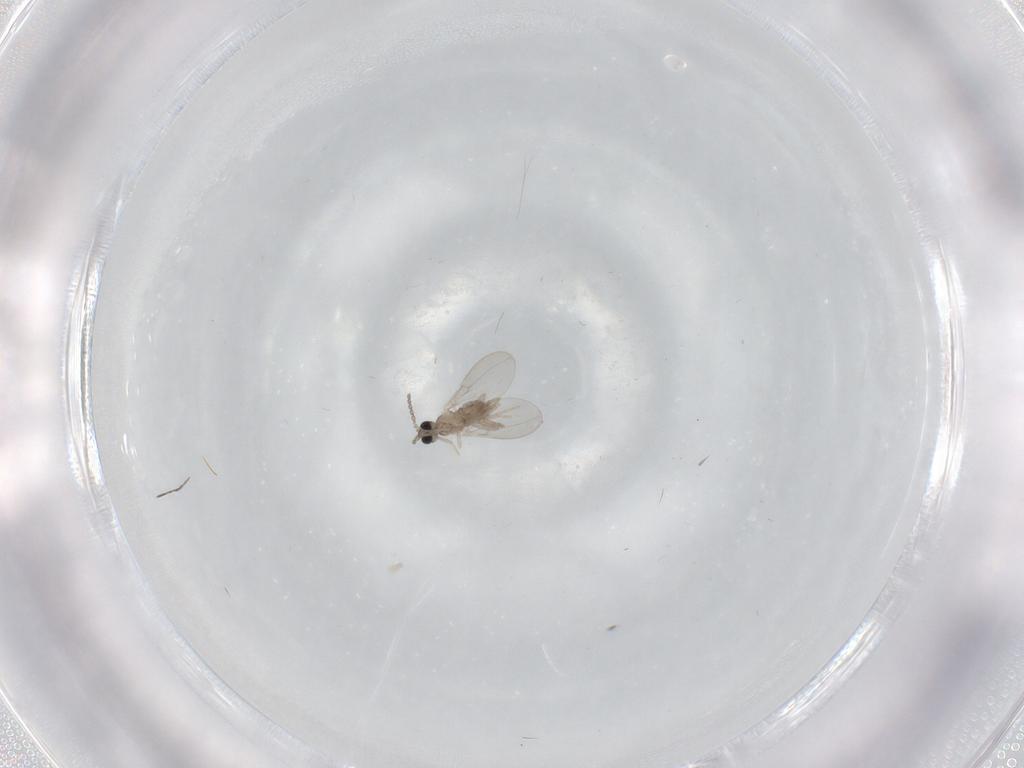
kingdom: Animalia
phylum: Arthropoda
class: Insecta
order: Diptera
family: Cecidomyiidae
